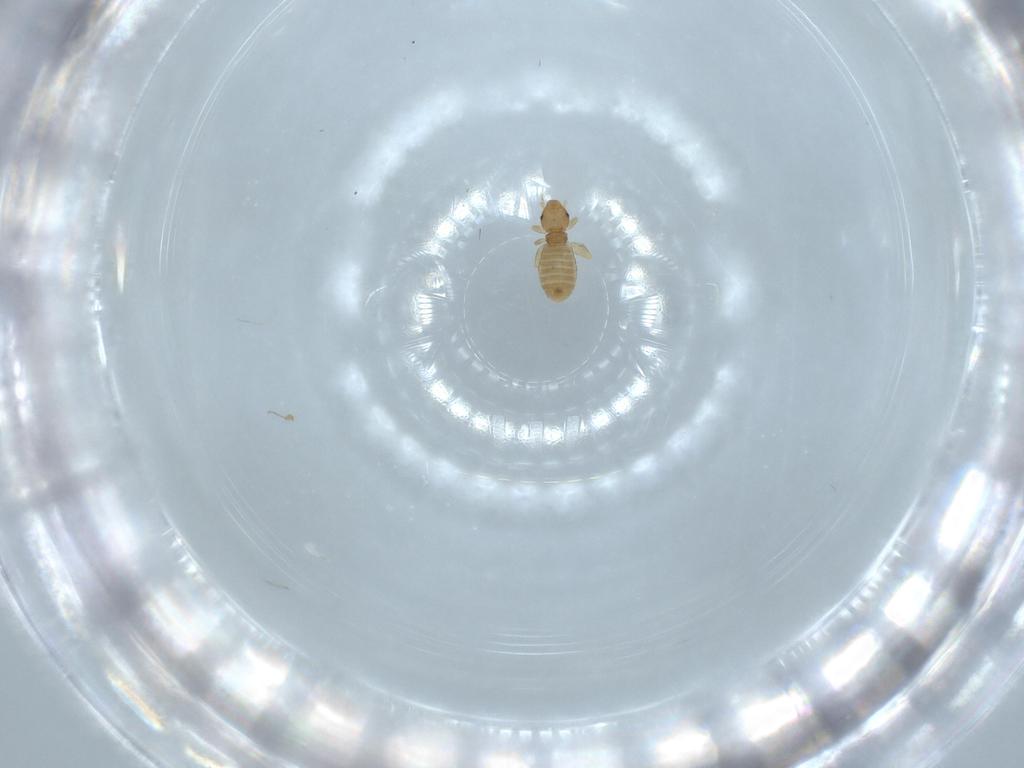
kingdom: Animalia
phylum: Arthropoda
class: Insecta
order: Psocodea
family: Liposcelididae
